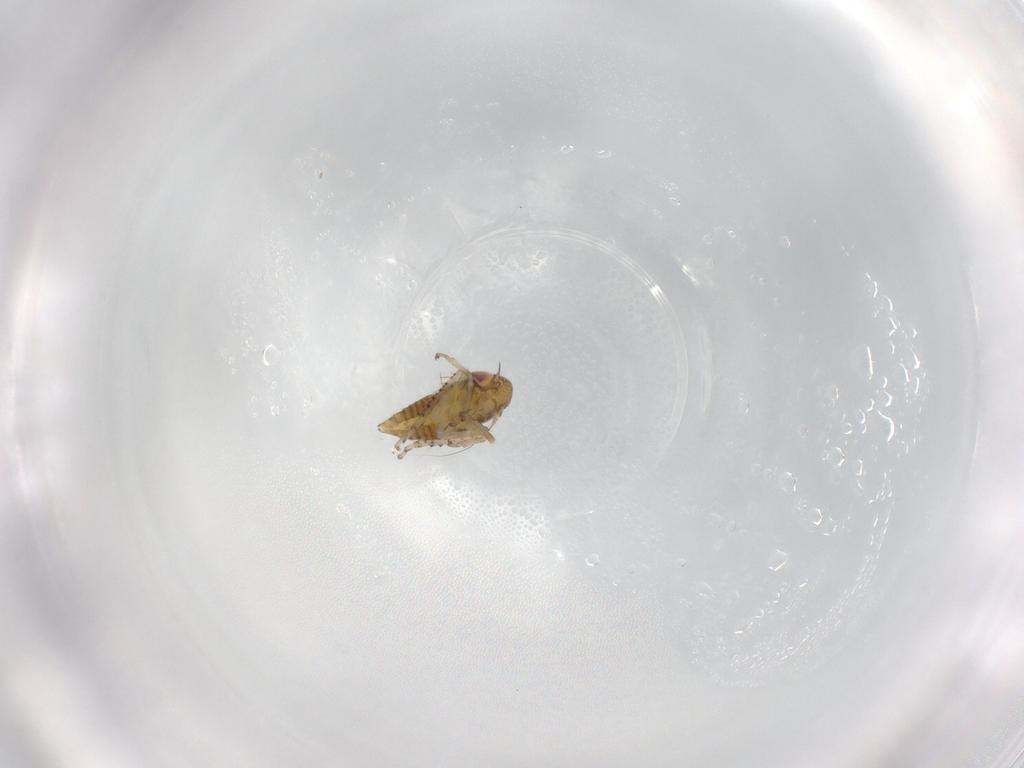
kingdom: Animalia
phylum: Arthropoda
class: Insecta
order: Hemiptera
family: Cicadellidae
